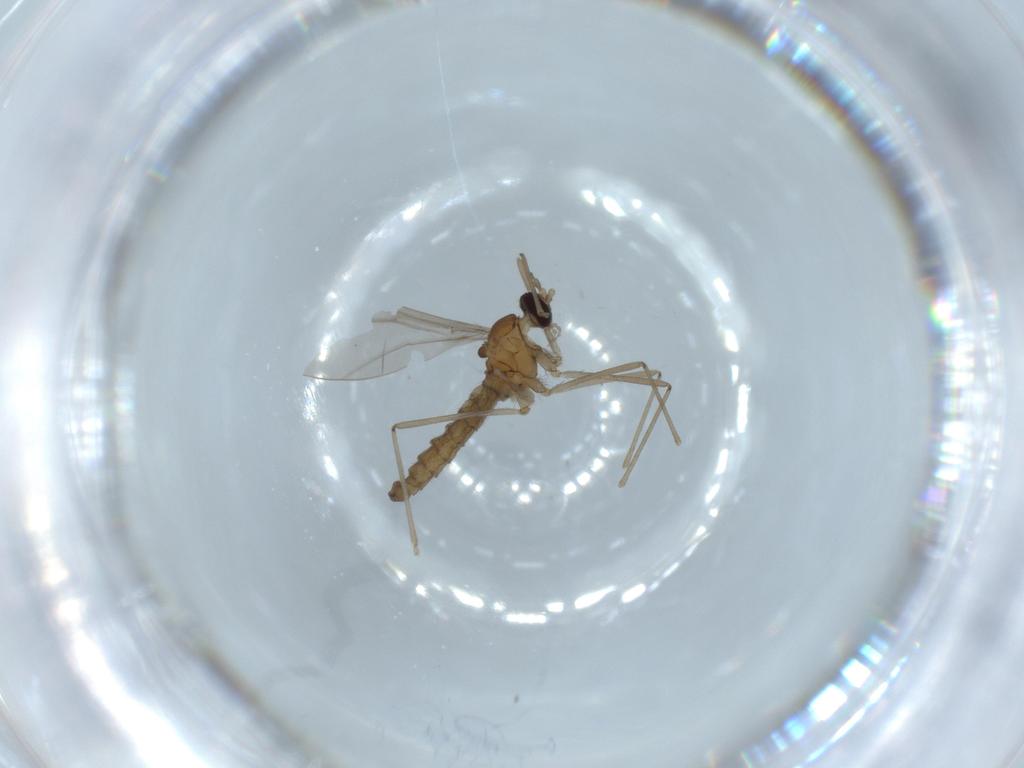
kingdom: Animalia
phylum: Arthropoda
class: Insecta
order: Diptera
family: Cecidomyiidae
